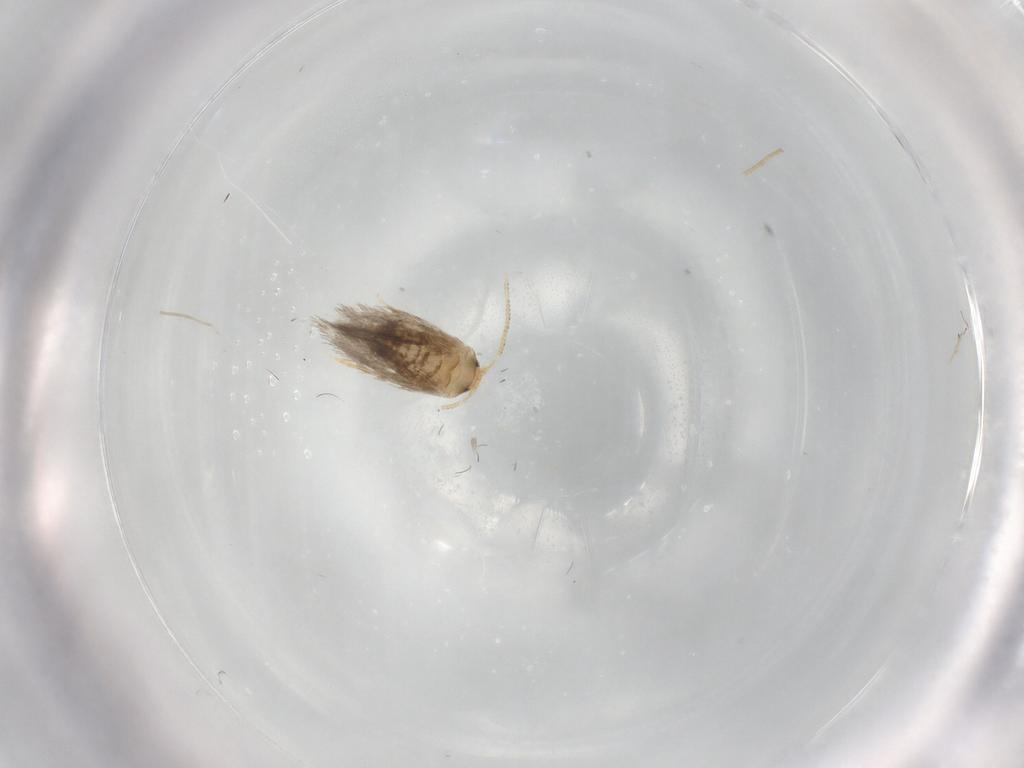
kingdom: Animalia
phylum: Arthropoda
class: Insecta
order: Lepidoptera
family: Nepticulidae
